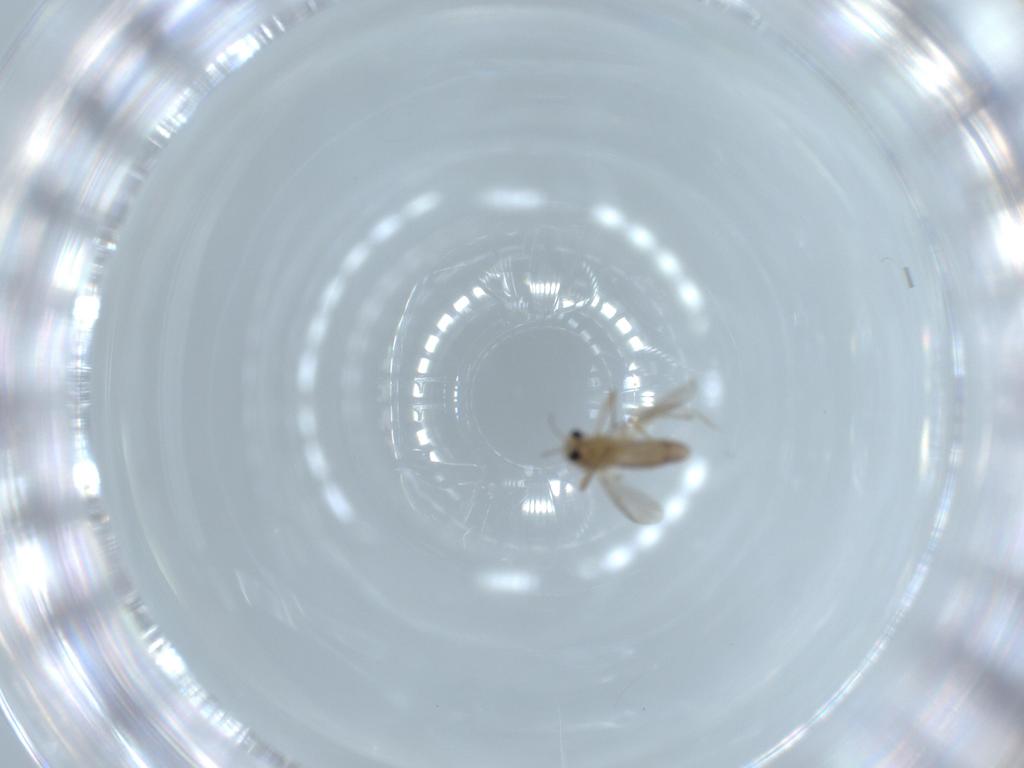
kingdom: Animalia
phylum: Arthropoda
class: Insecta
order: Diptera
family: Chironomidae
